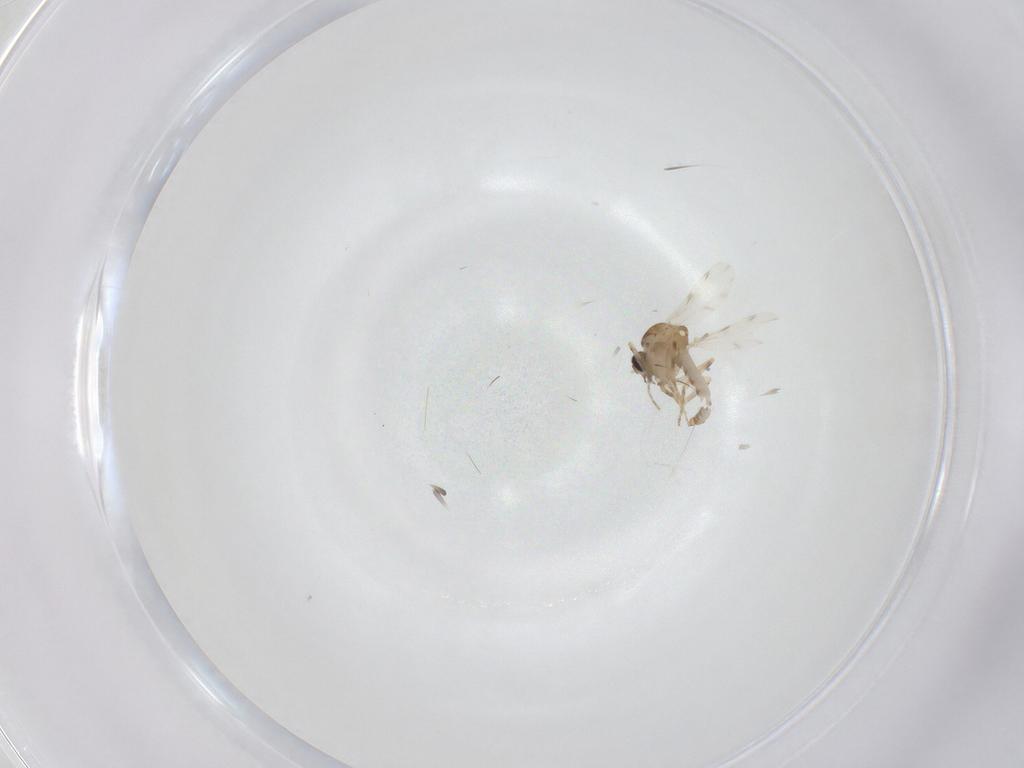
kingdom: Animalia
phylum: Arthropoda
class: Insecta
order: Diptera
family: Ceratopogonidae
